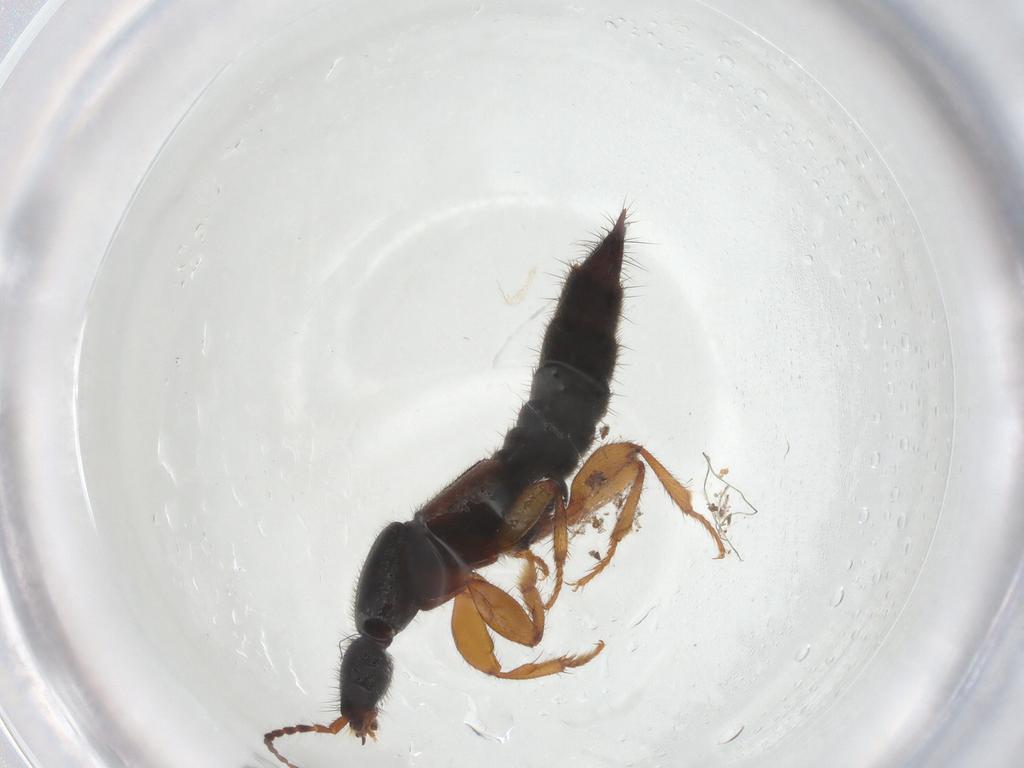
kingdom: Animalia
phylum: Arthropoda
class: Insecta
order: Coleoptera
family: Staphylinidae
